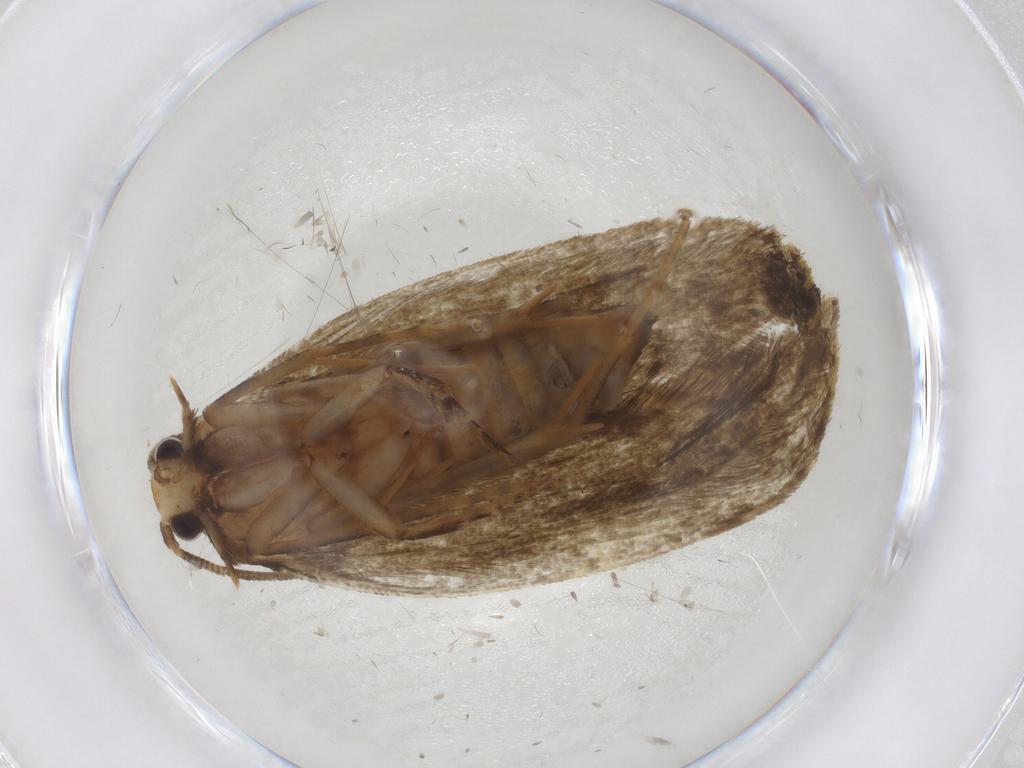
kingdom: Animalia
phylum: Arthropoda
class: Insecta
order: Lepidoptera
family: Tineidae
